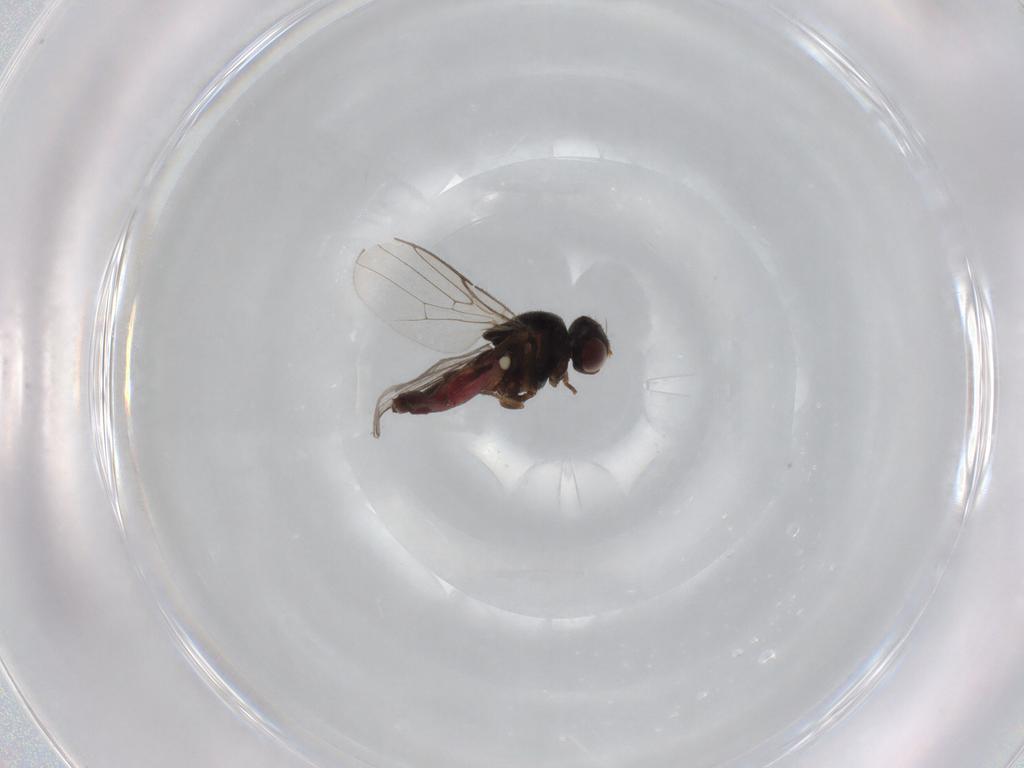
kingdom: Animalia
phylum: Arthropoda
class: Insecta
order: Diptera
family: Chloropidae
